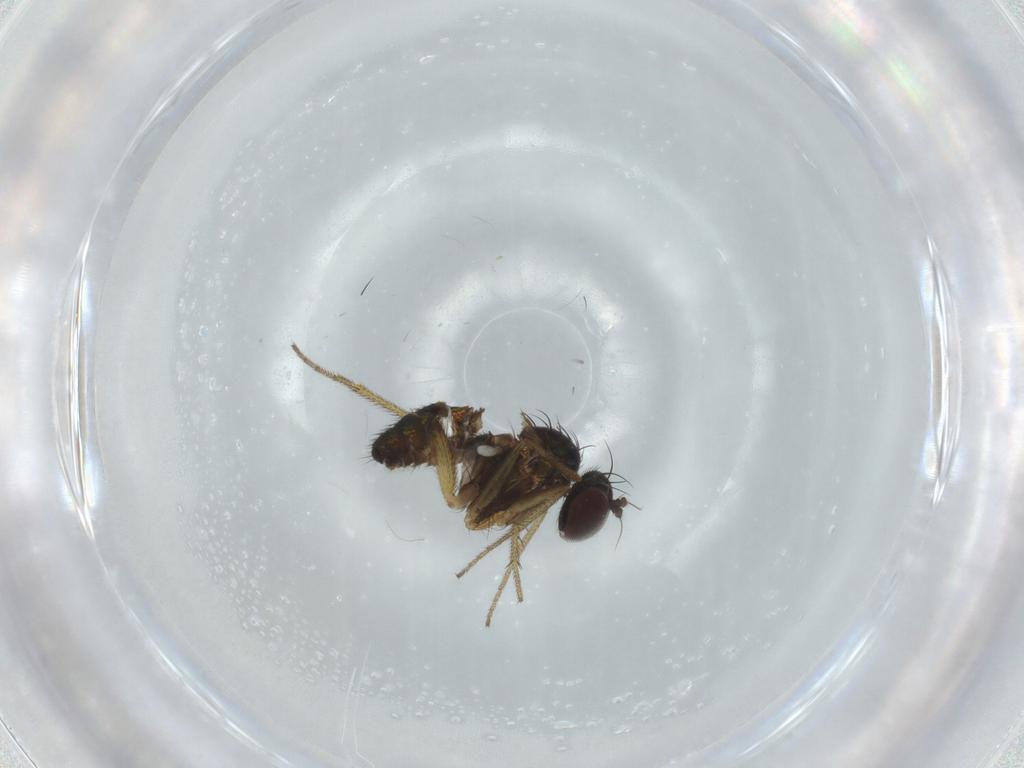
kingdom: Animalia
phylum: Arthropoda
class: Insecta
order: Diptera
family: Dolichopodidae
